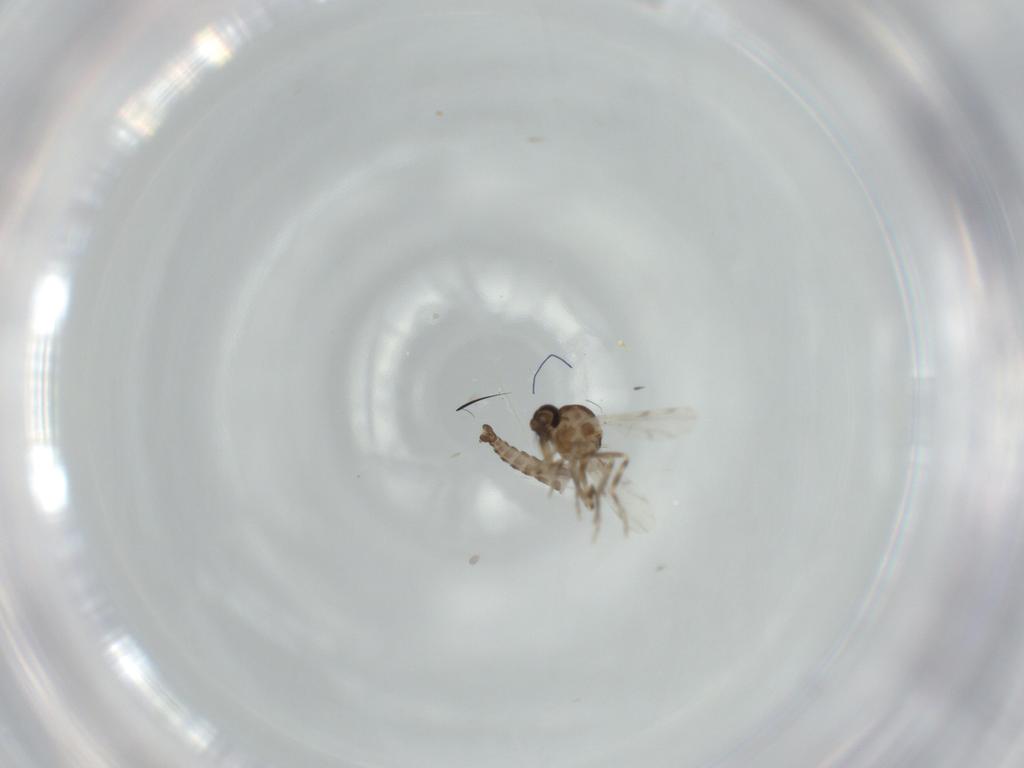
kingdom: Animalia
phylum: Arthropoda
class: Insecta
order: Diptera
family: Ceratopogonidae
